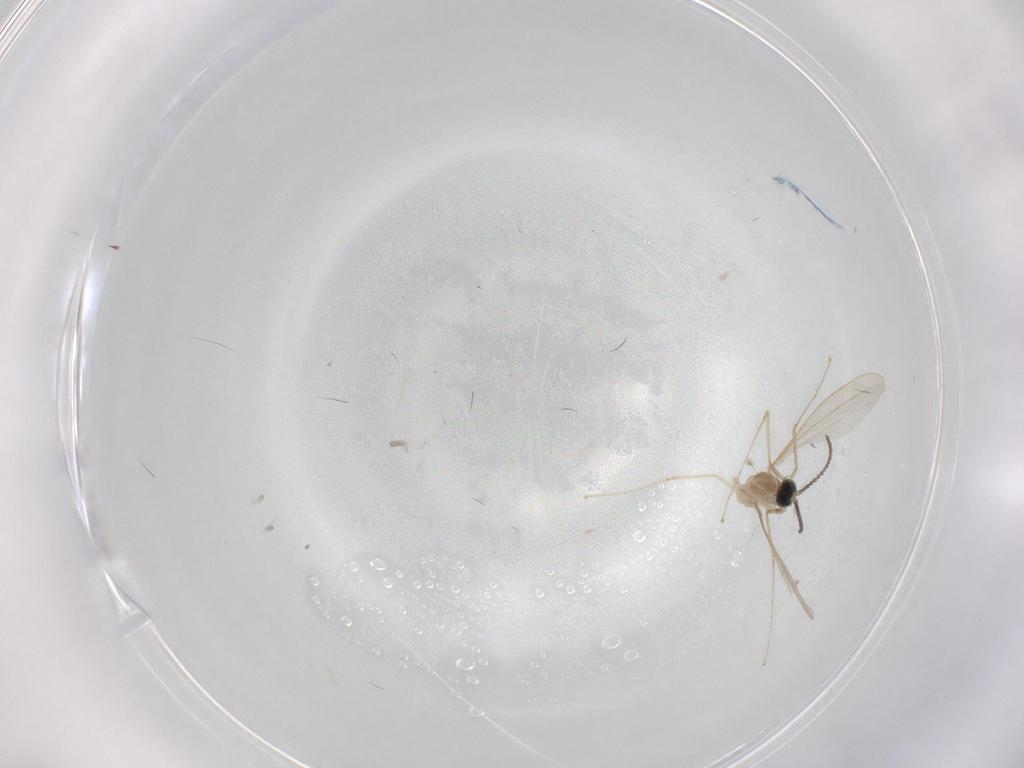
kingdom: Animalia
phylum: Arthropoda
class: Insecta
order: Diptera
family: Cecidomyiidae
